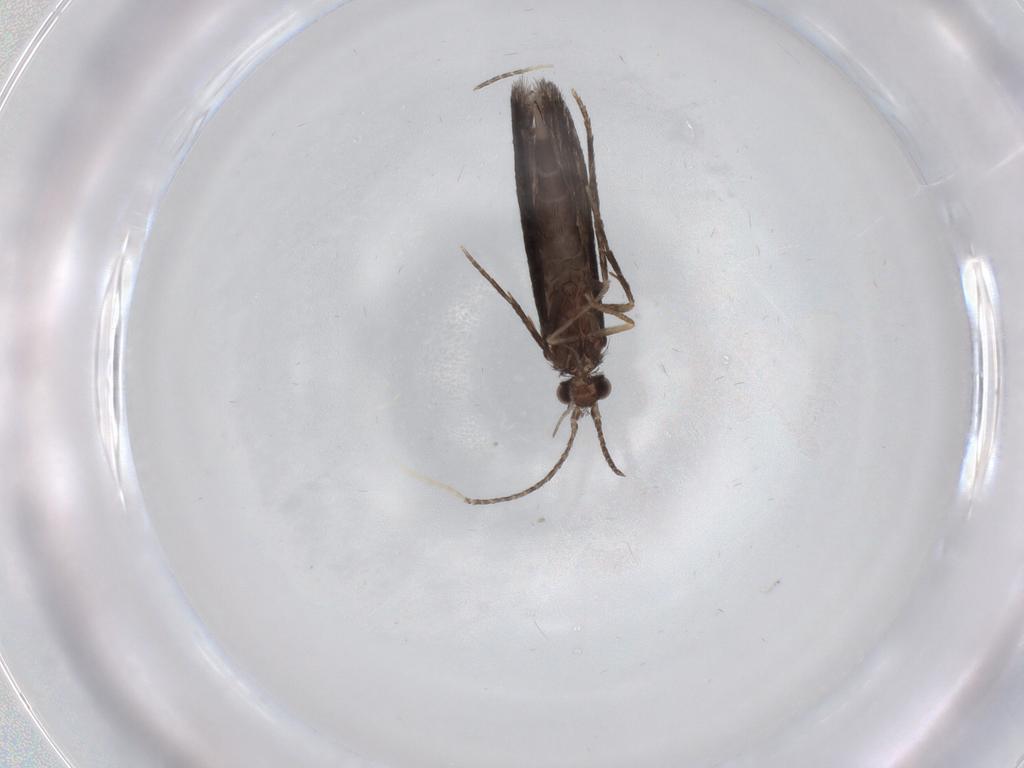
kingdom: Animalia
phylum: Arthropoda
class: Insecta
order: Trichoptera
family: Xiphocentronidae
